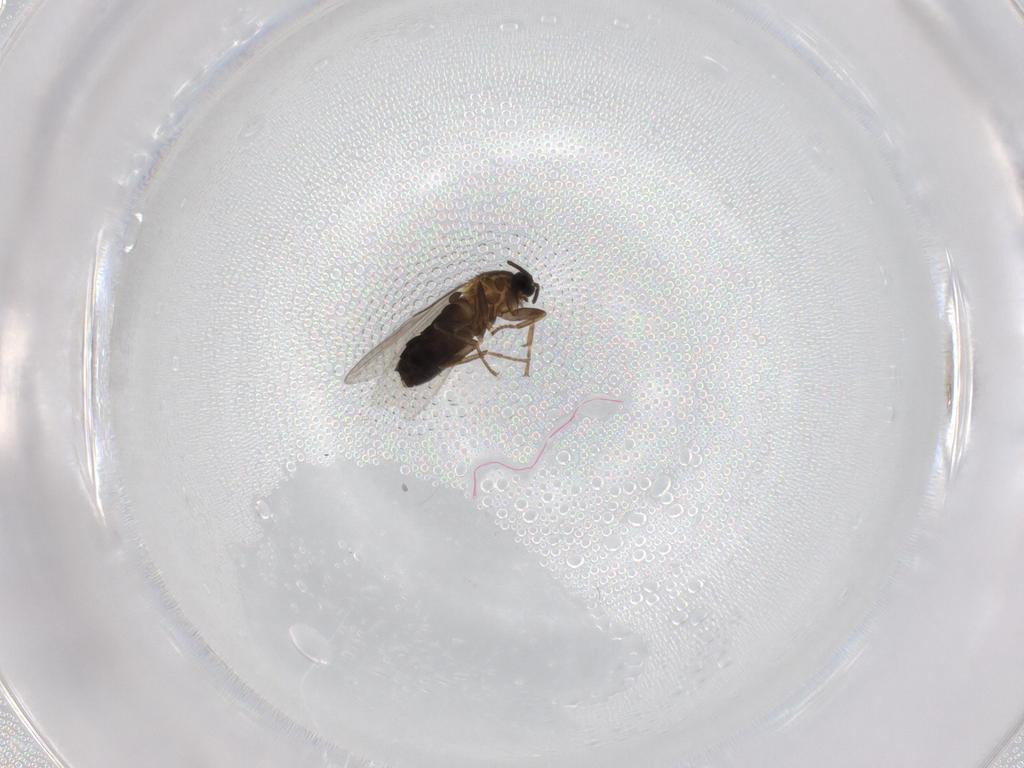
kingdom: Animalia
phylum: Arthropoda
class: Insecta
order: Diptera
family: Scatopsidae
